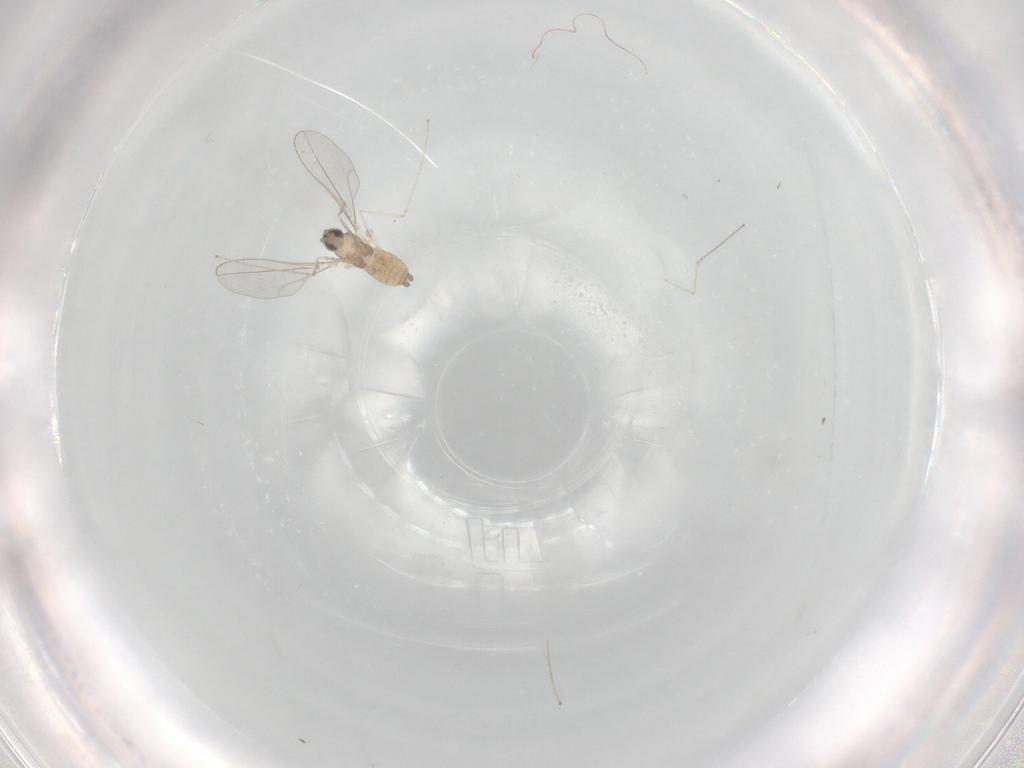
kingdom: Animalia
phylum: Arthropoda
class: Insecta
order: Diptera
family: Cecidomyiidae
